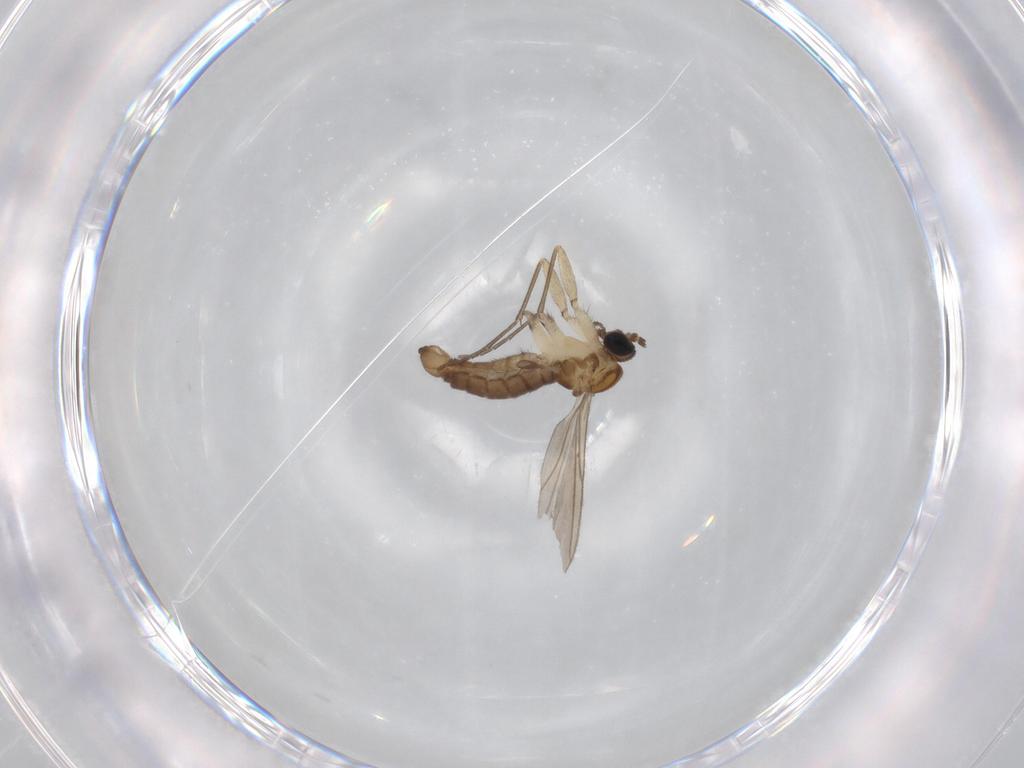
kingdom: Animalia
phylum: Arthropoda
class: Insecta
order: Diptera
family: Sciaridae
